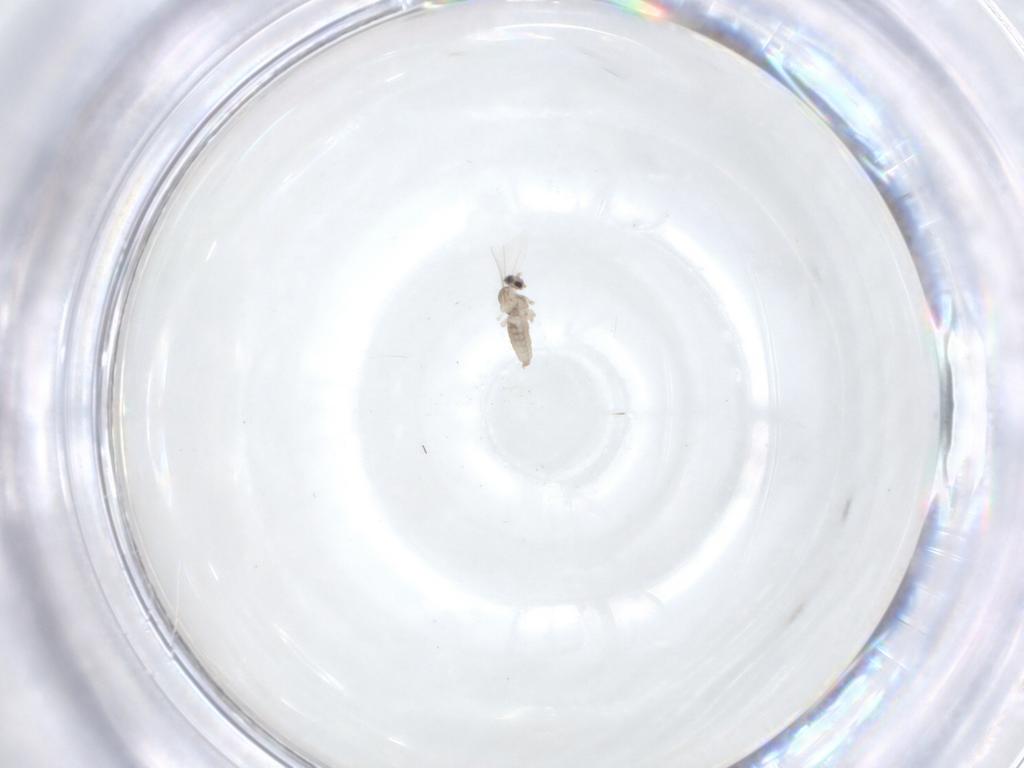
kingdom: Animalia
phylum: Arthropoda
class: Insecta
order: Diptera
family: Cecidomyiidae
